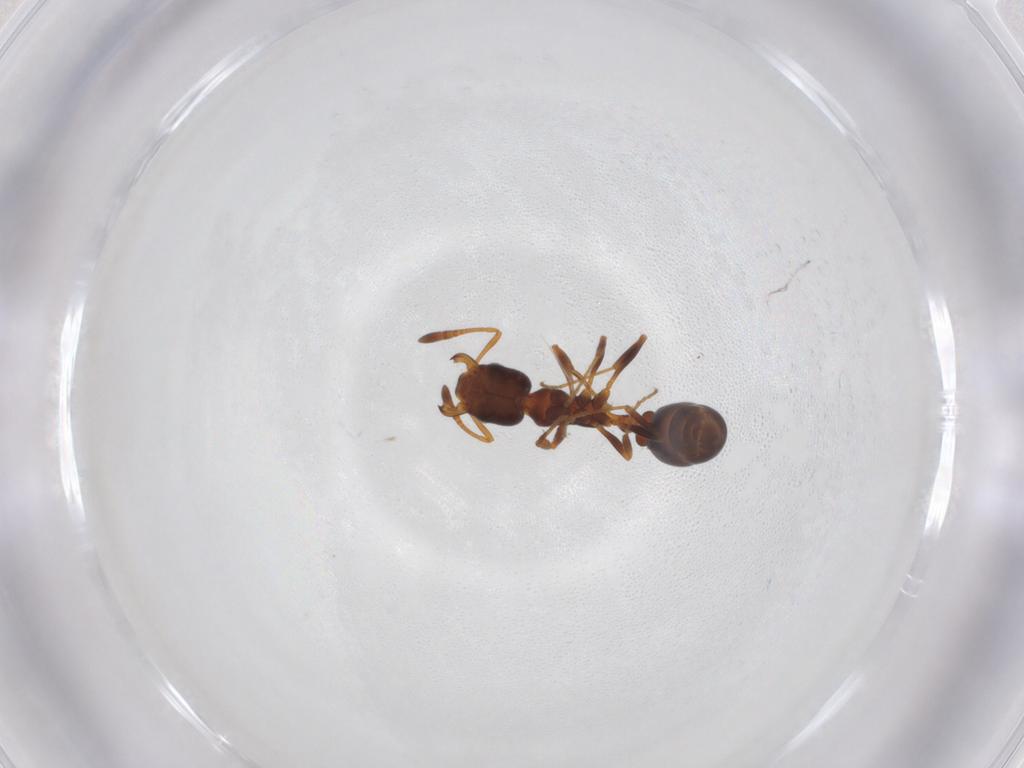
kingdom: Animalia
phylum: Arthropoda
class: Insecta
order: Hymenoptera
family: Formicidae
